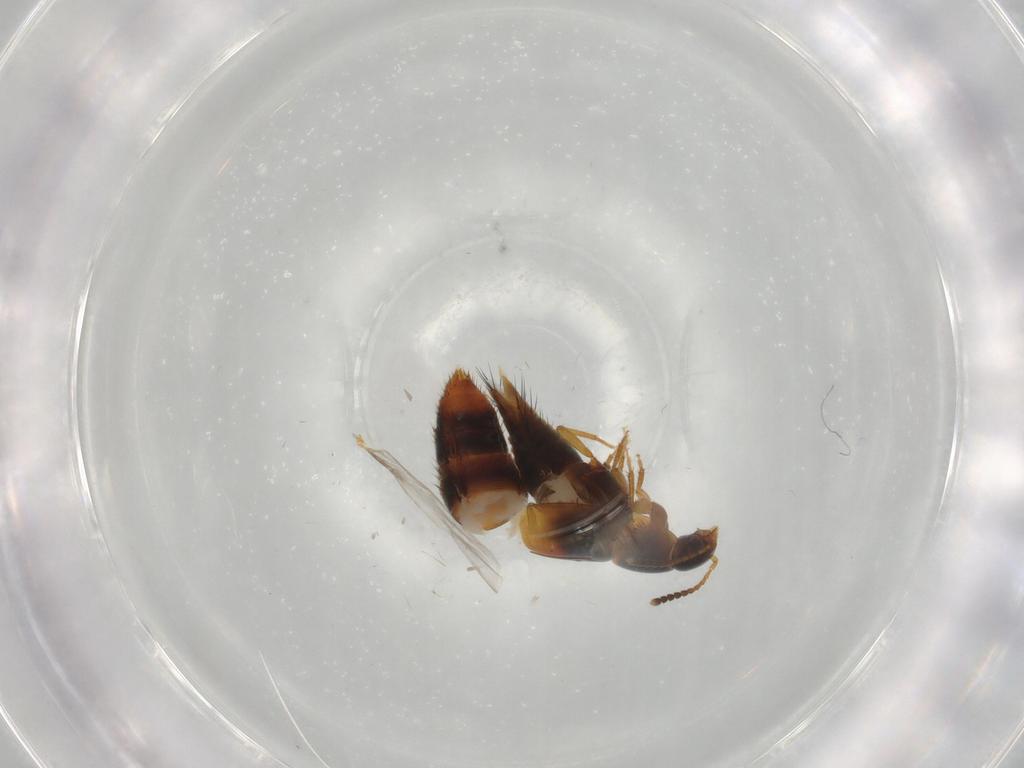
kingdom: Animalia
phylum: Arthropoda
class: Insecta
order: Coleoptera
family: Staphylinidae
